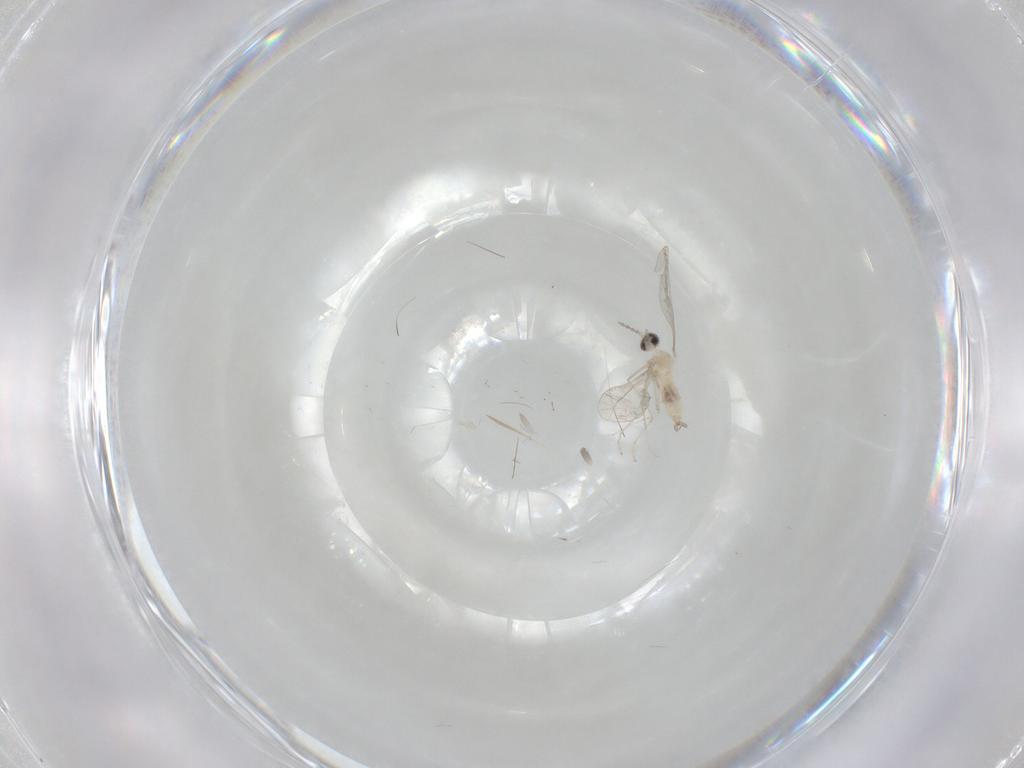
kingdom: Animalia
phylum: Arthropoda
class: Insecta
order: Diptera
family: Cecidomyiidae
